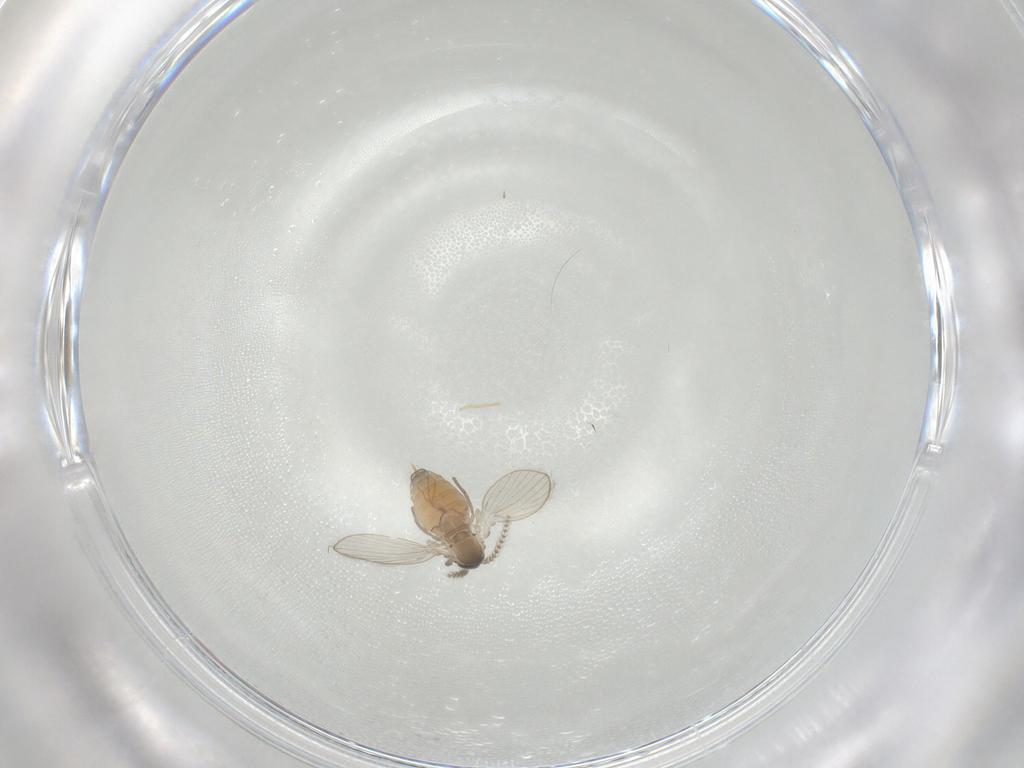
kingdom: Animalia
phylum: Arthropoda
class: Insecta
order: Diptera
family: Psychodidae
